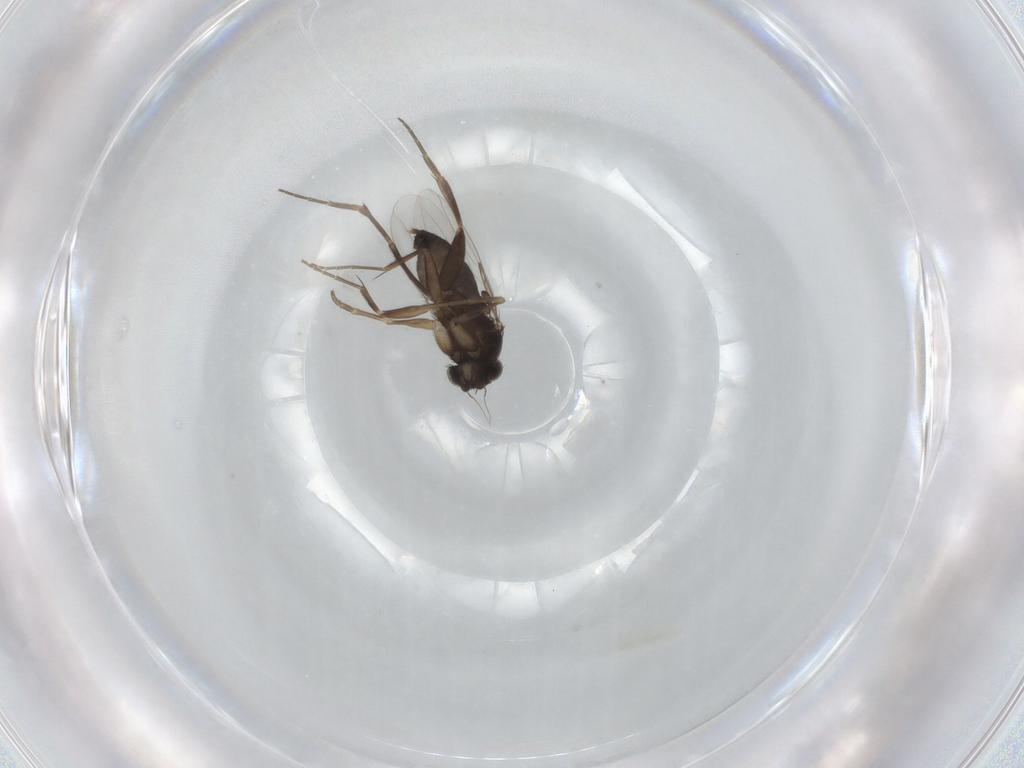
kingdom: Animalia
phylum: Arthropoda
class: Insecta
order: Diptera
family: Phoridae
